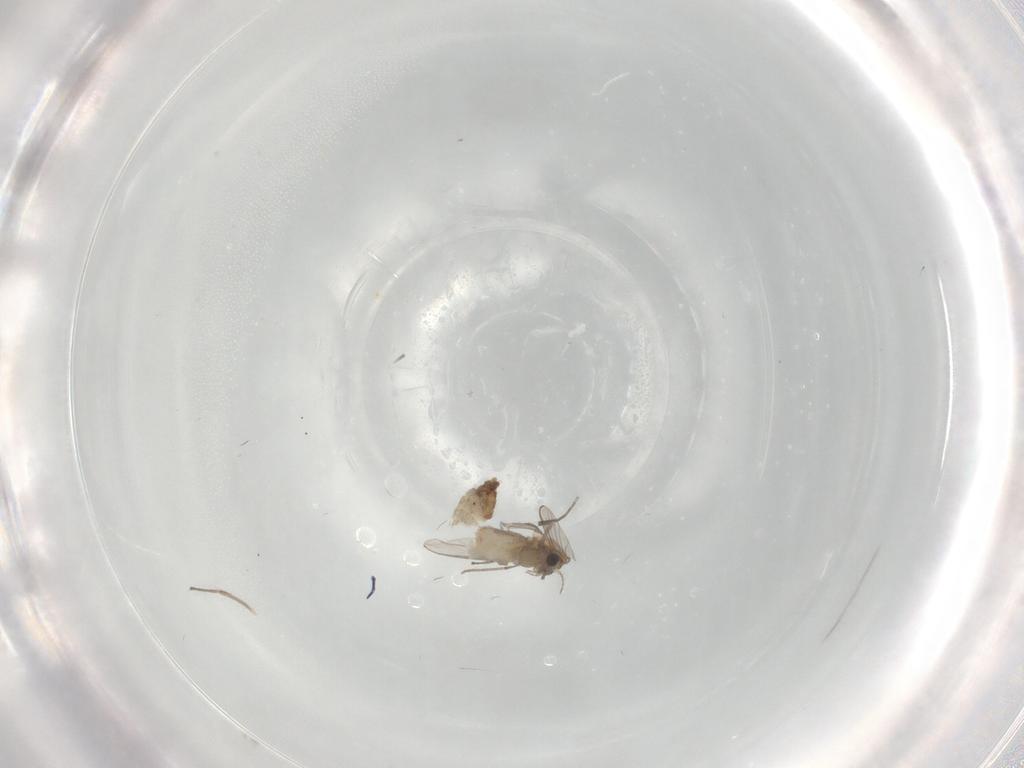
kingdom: Animalia
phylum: Arthropoda
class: Insecta
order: Diptera
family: Chironomidae
